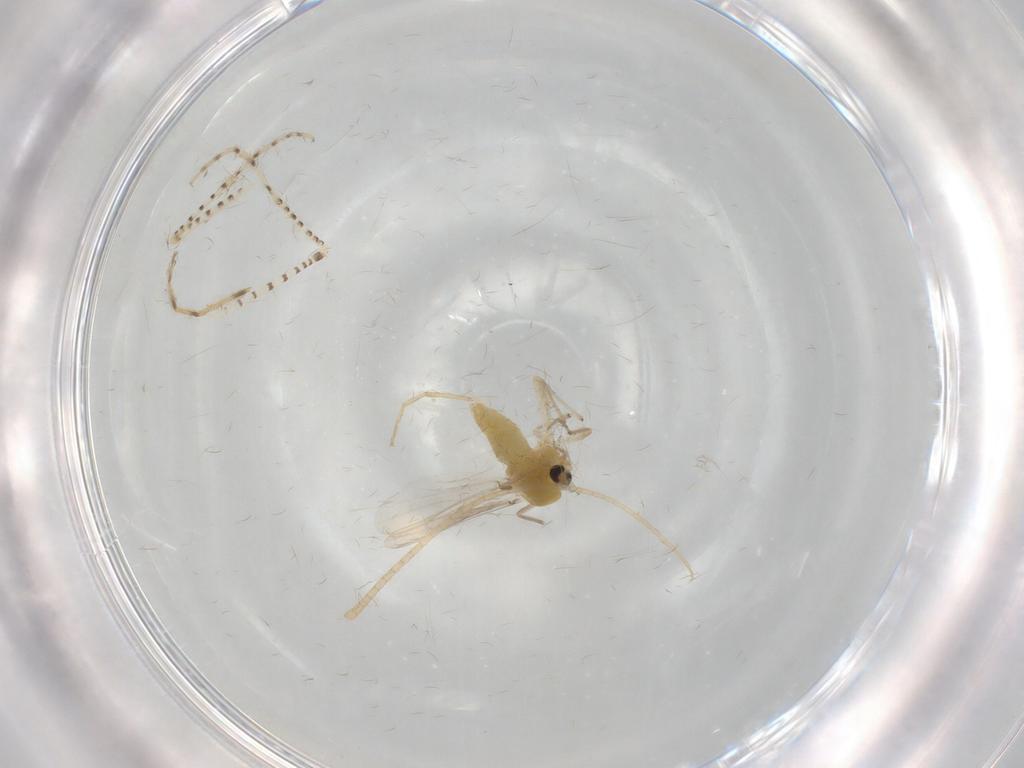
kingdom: Animalia
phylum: Arthropoda
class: Insecta
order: Diptera
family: Chironomidae
